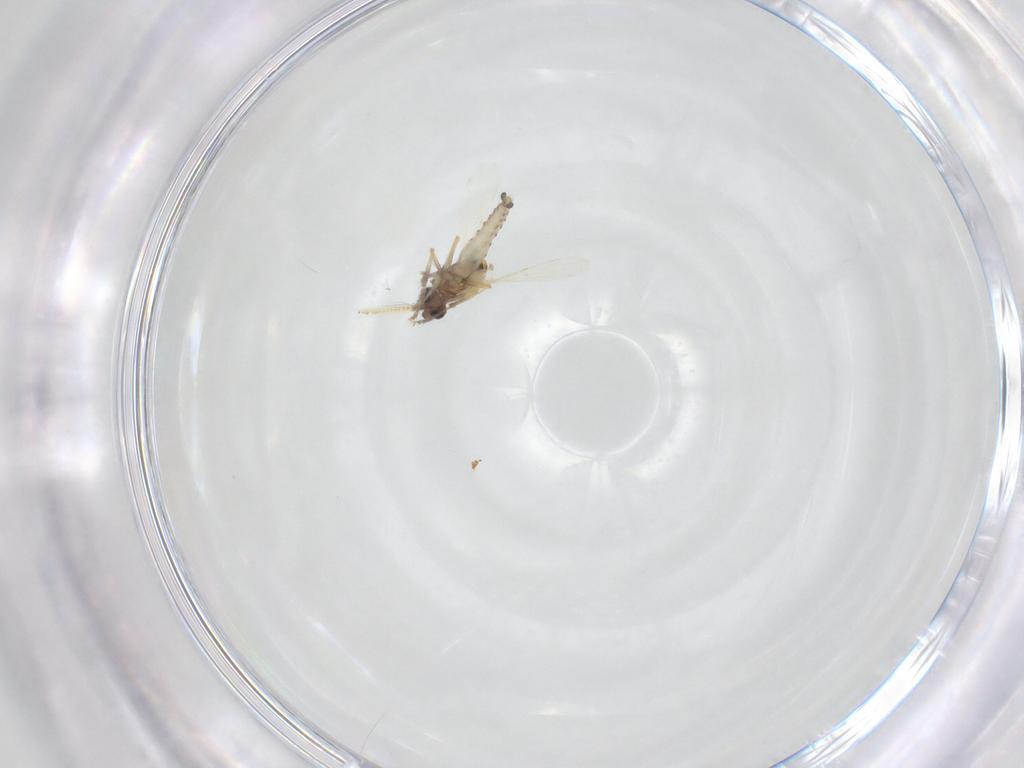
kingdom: Animalia
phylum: Arthropoda
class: Insecta
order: Diptera
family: Ceratopogonidae
